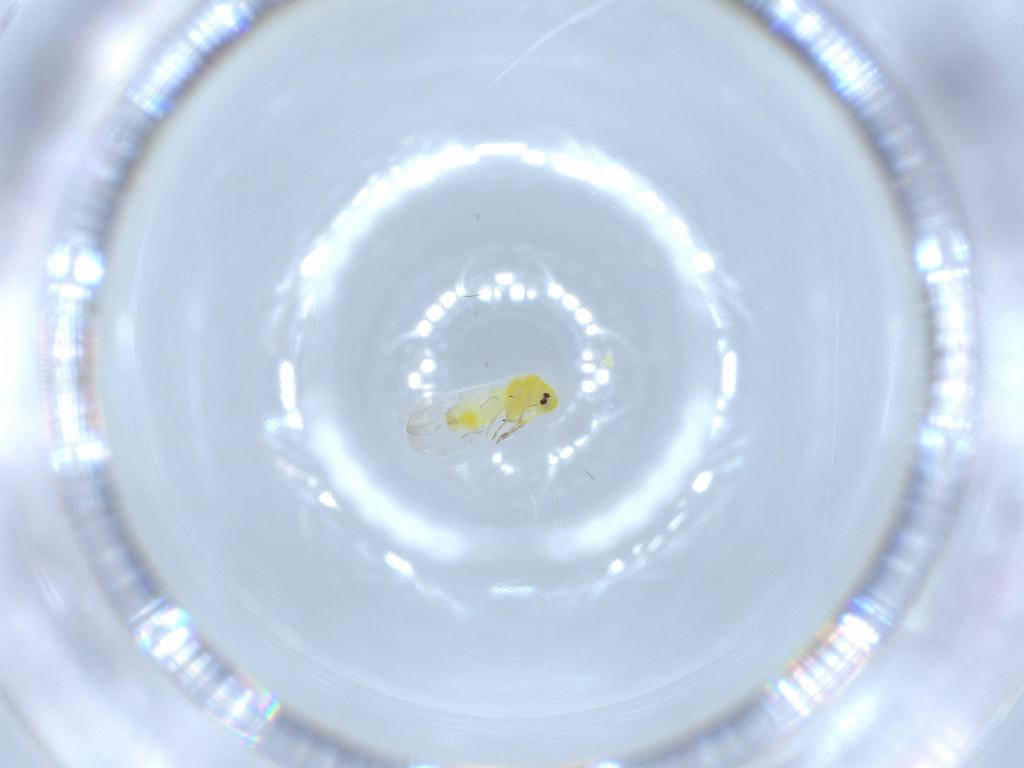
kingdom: Animalia
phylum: Arthropoda
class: Insecta
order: Hemiptera
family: Aleyrodidae
